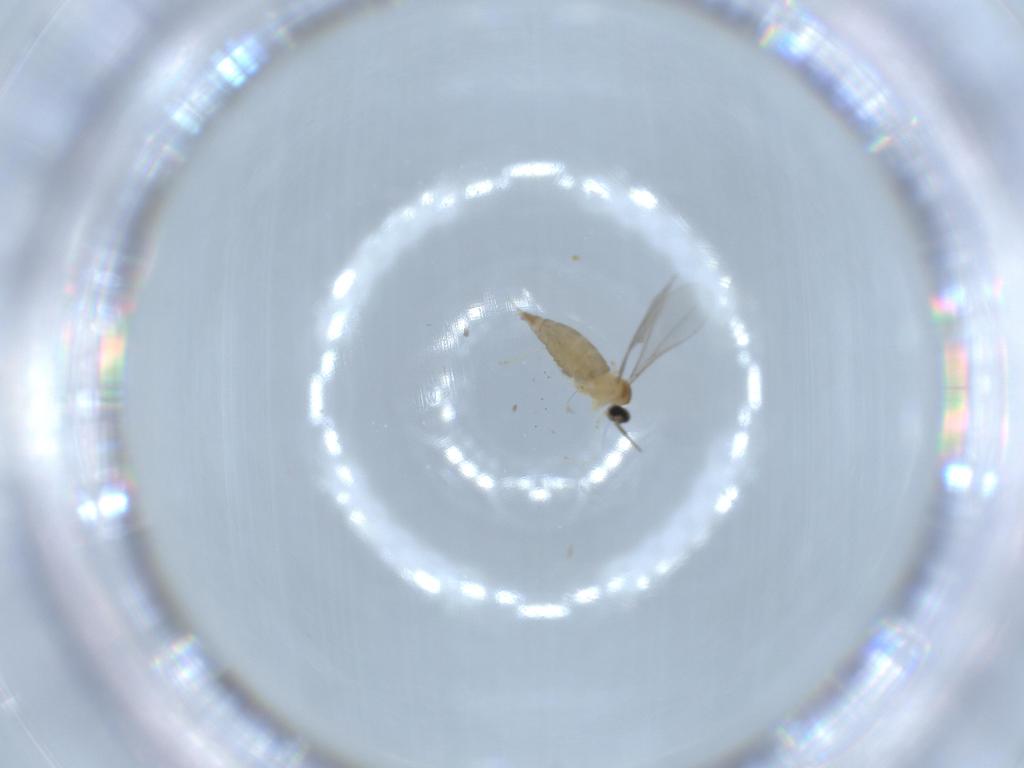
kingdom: Animalia
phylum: Arthropoda
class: Insecta
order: Diptera
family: Cecidomyiidae
